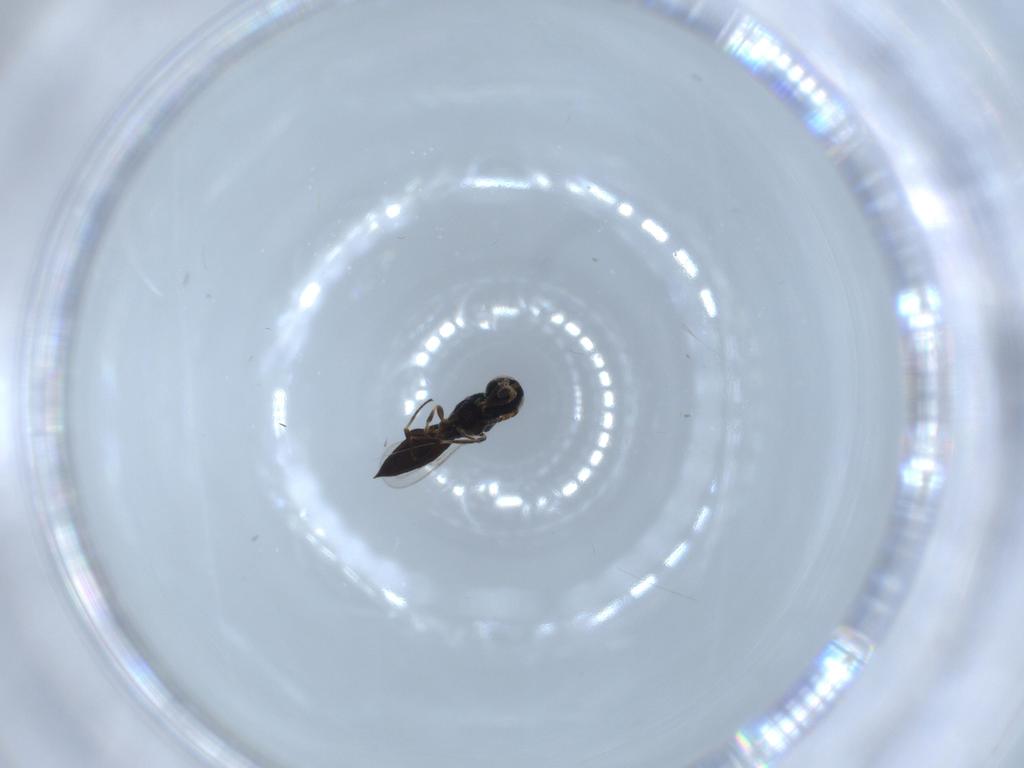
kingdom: Animalia
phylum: Arthropoda
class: Insecta
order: Hymenoptera
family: Scelionidae
